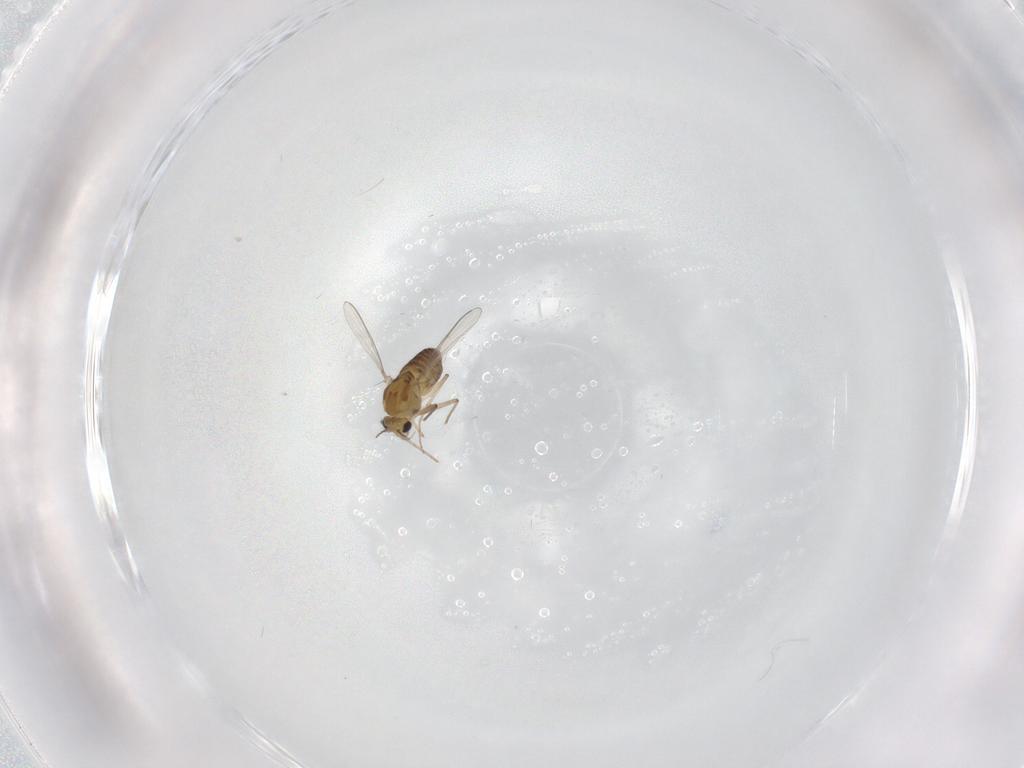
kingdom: Animalia
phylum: Arthropoda
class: Insecta
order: Diptera
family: Chironomidae
